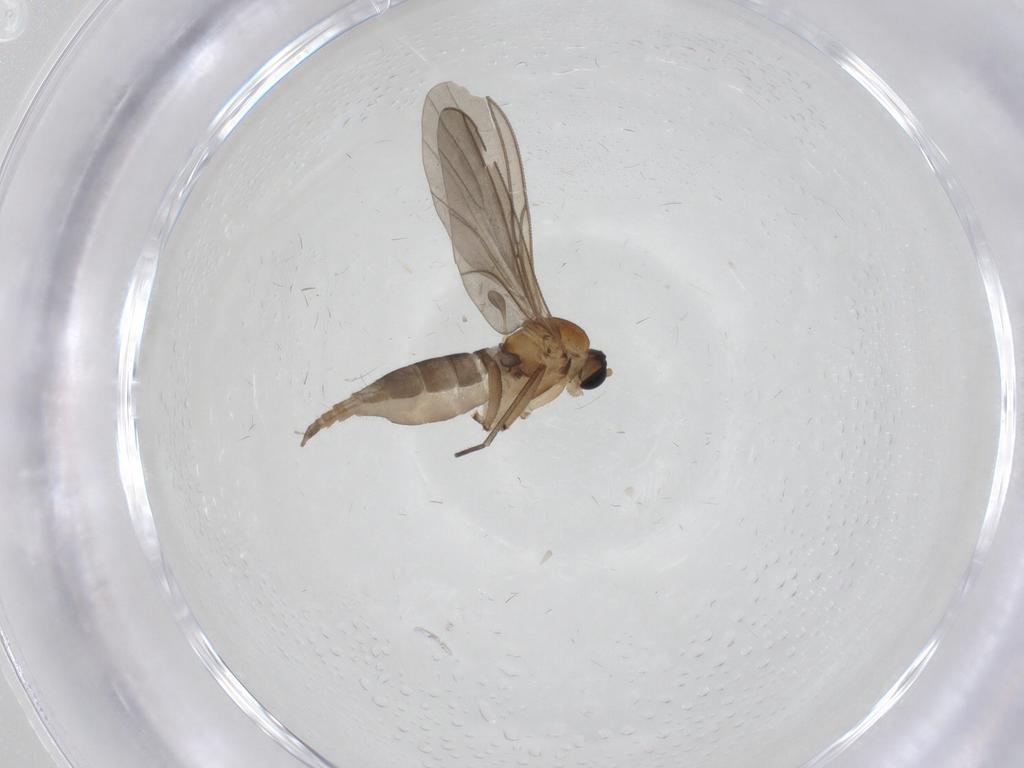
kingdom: Animalia
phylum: Arthropoda
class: Insecta
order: Diptera
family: Sciaridae
